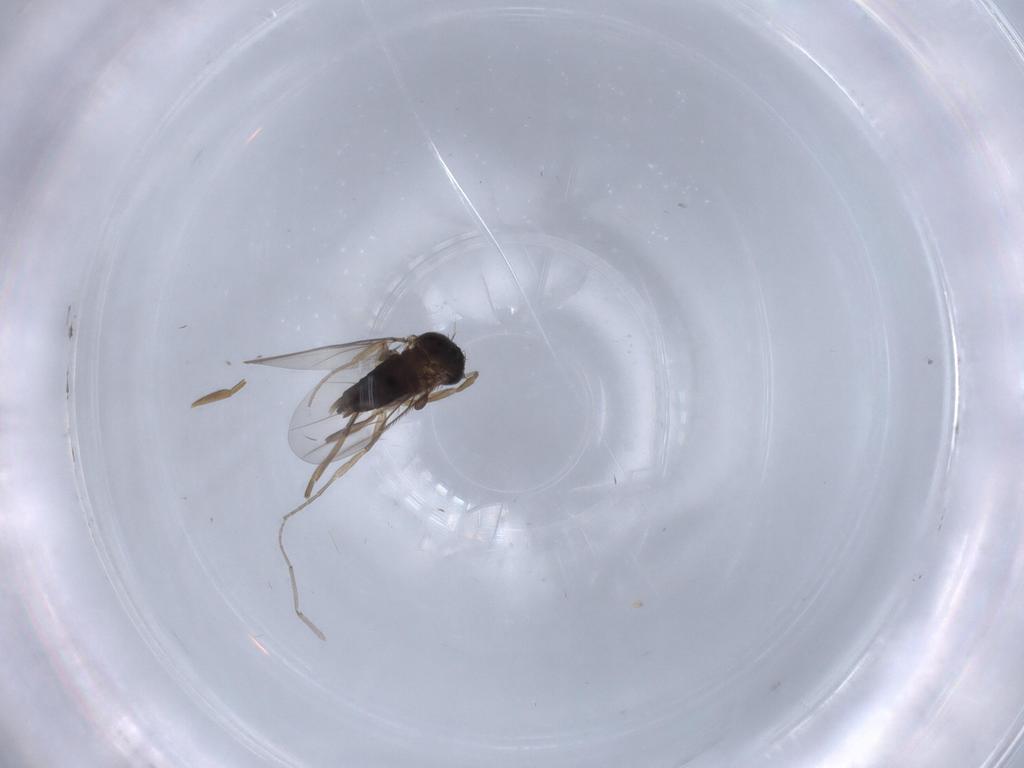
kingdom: Animalia
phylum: Arthropoda
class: Insecta
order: Diptera
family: Phoridae
